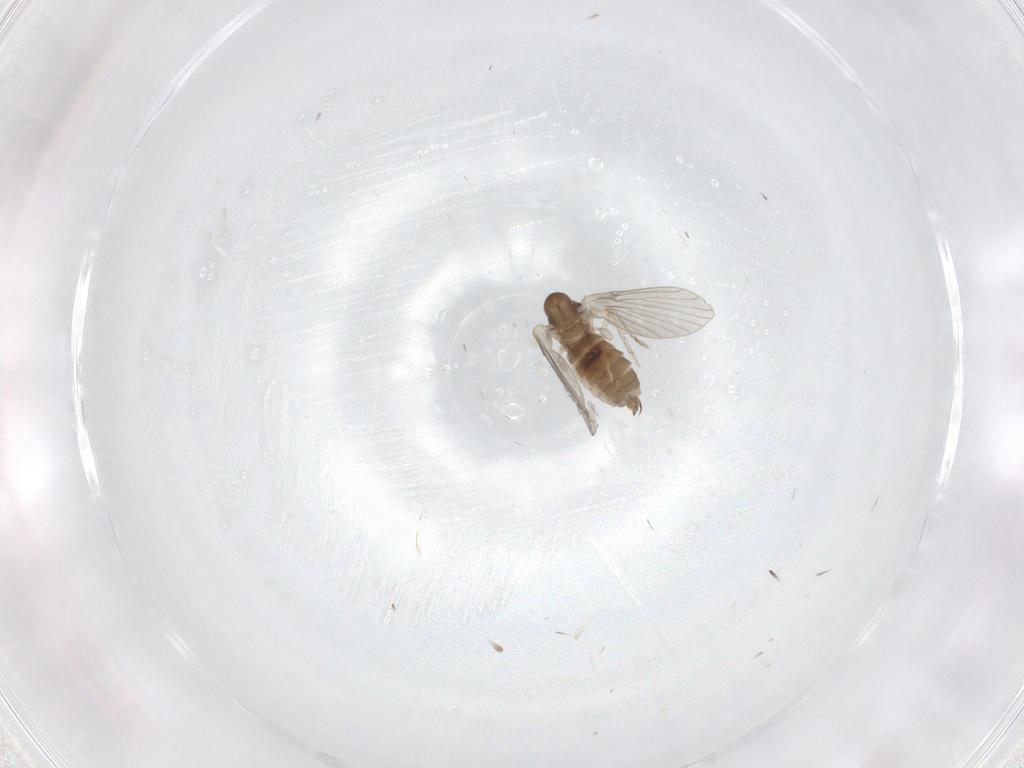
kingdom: Animalia
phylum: Arthropoda
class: Insecta
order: Diptera
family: Psychodidae
